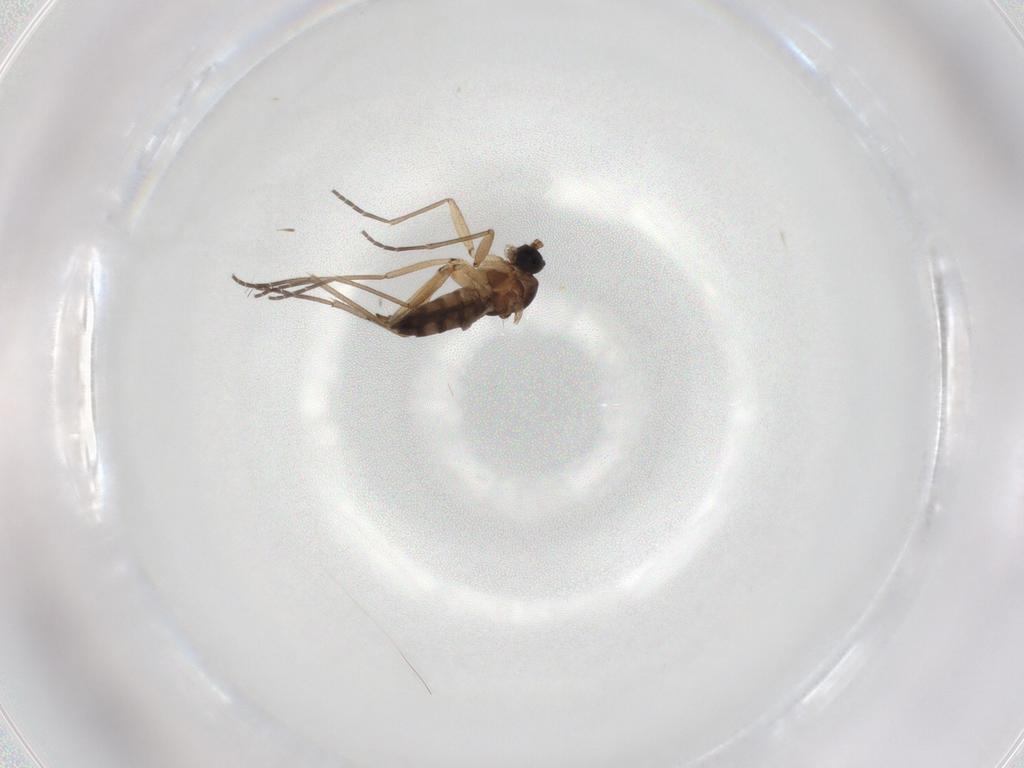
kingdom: Animalia
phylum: Arthropoda
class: Insecta
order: Diptera
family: Sciaridae
